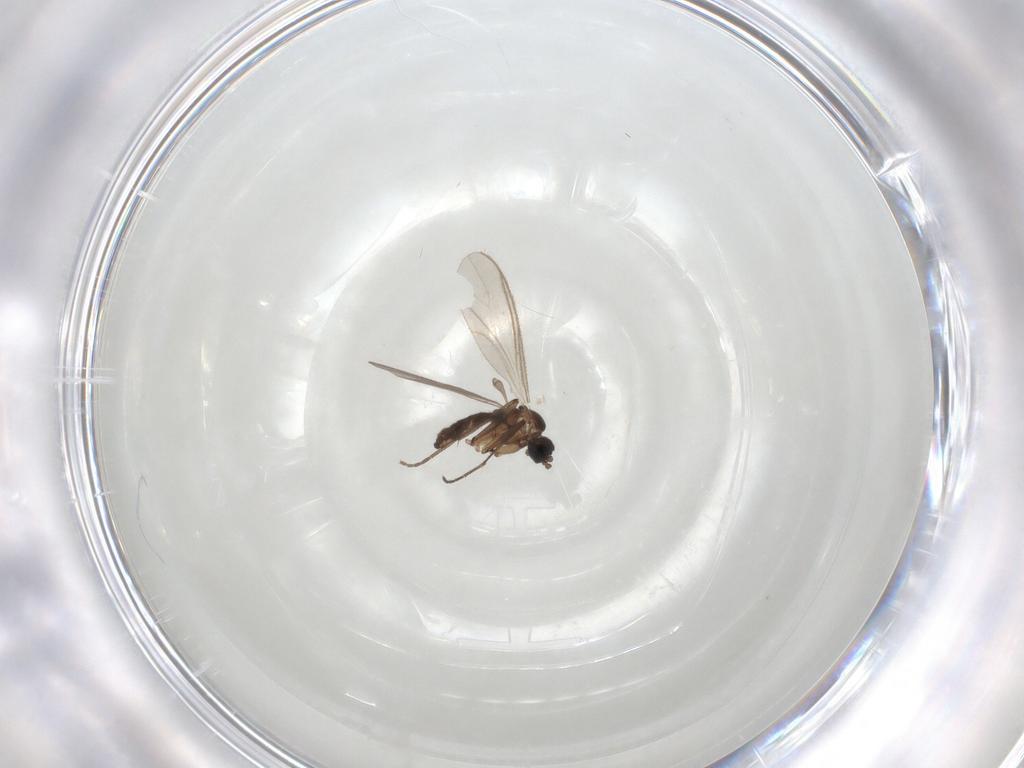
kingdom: Animalia
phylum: Arthropoda
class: Insecta
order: Diptera
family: Sciaridae
